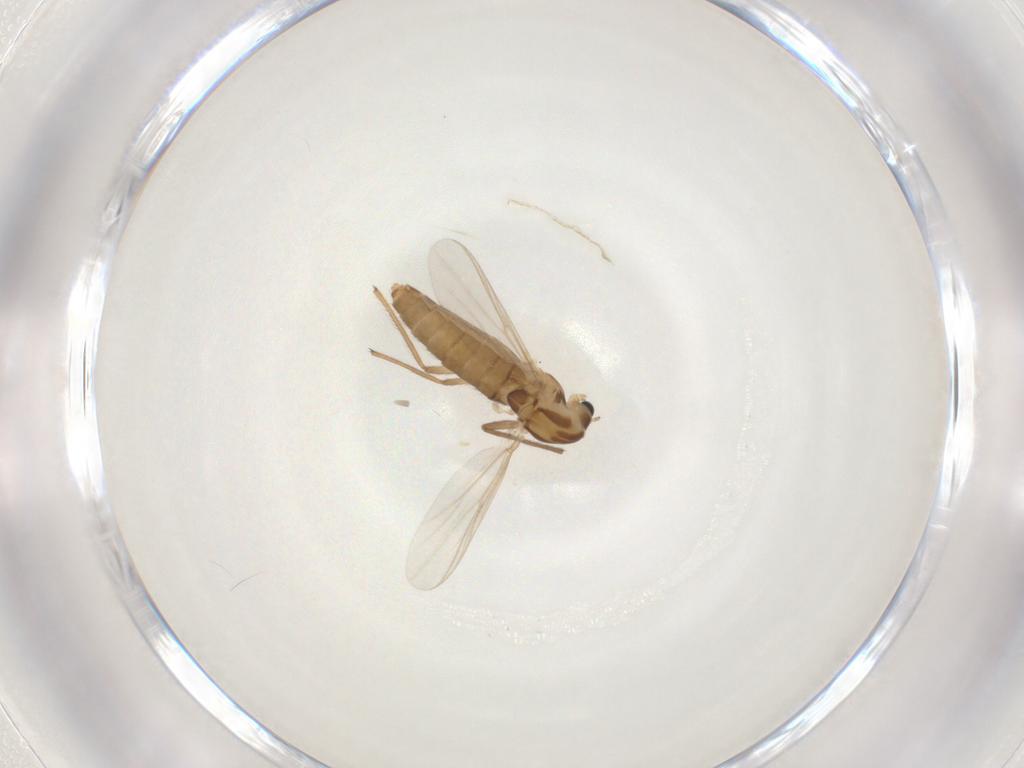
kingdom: Animalia
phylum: Arthropoda
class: Insecta
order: Diptera
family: Chironomidae
